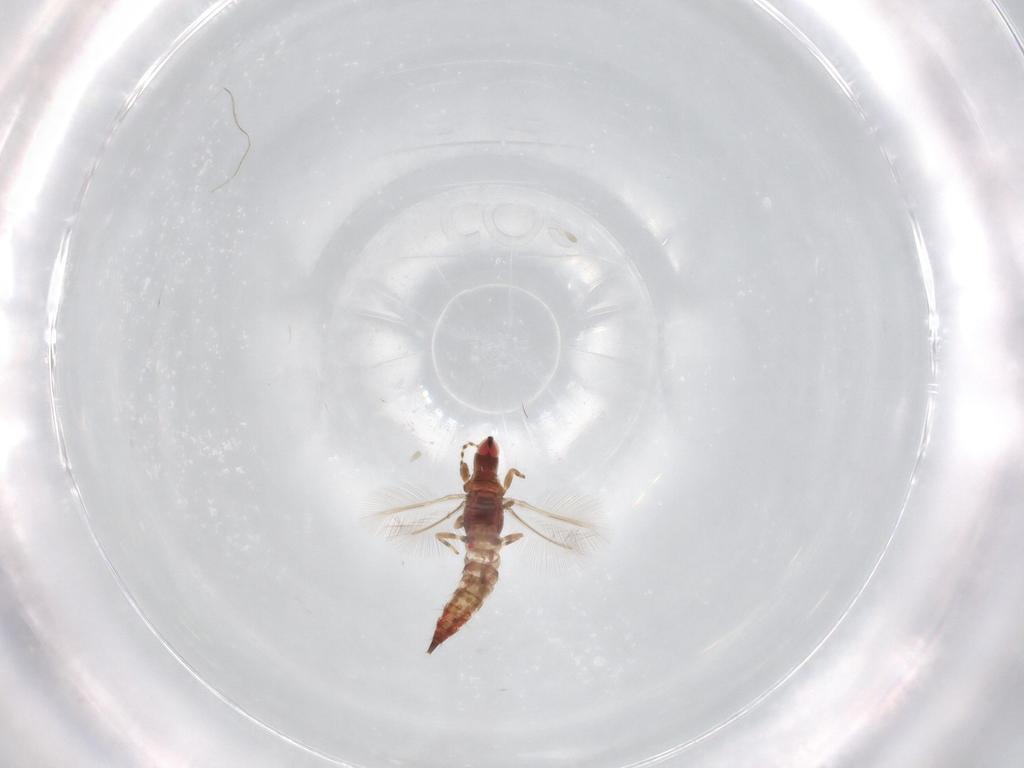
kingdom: Animalia
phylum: Arthropoda
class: Insecta
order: Thysanoptera
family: Phlaeothripidae
